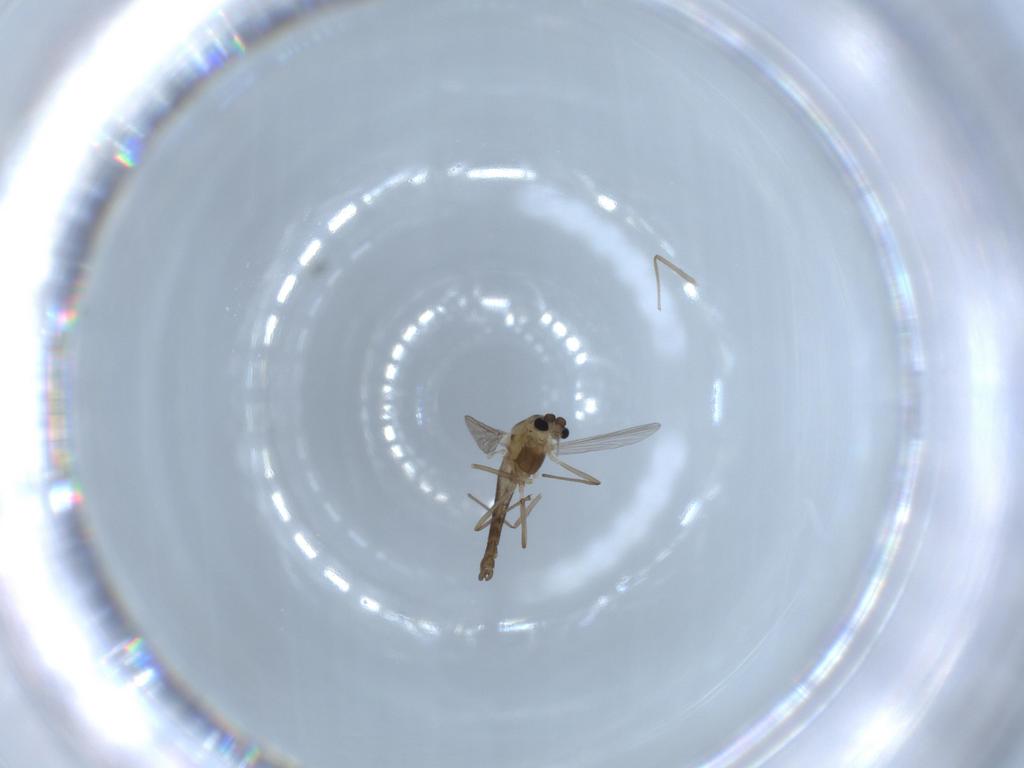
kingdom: Animalia
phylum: Arthropoda
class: Insecta
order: Diptera
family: Chironomidae
